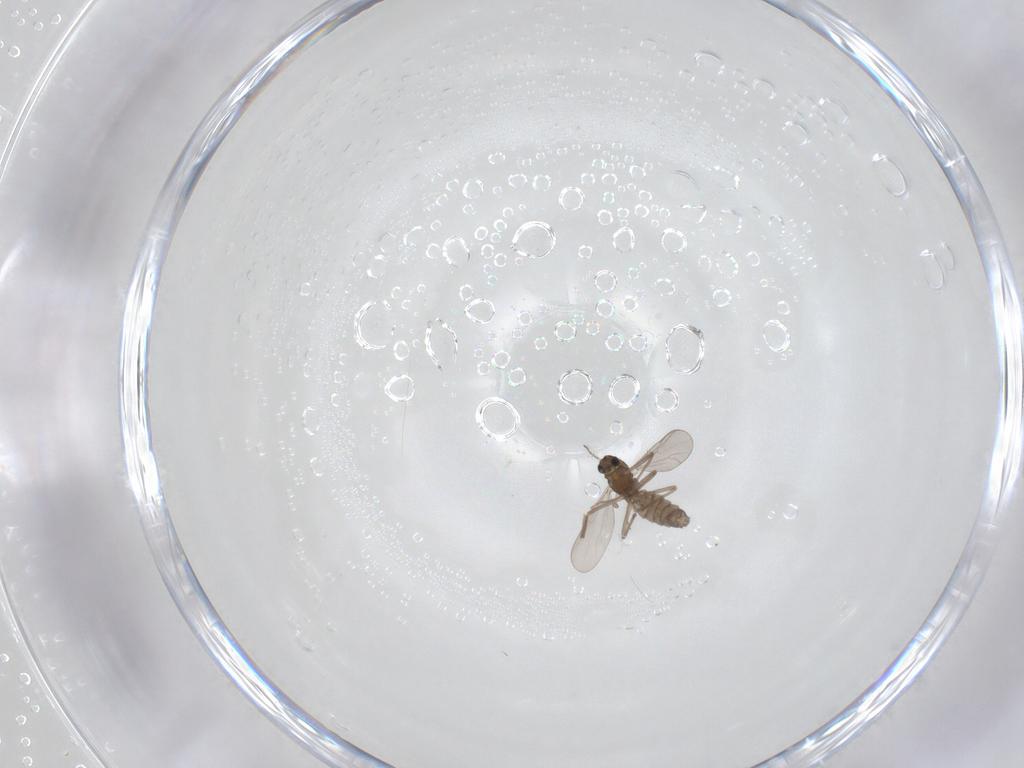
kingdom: Animalia
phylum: Arthropoda
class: Insecta
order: Diptera
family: Chironomidae
